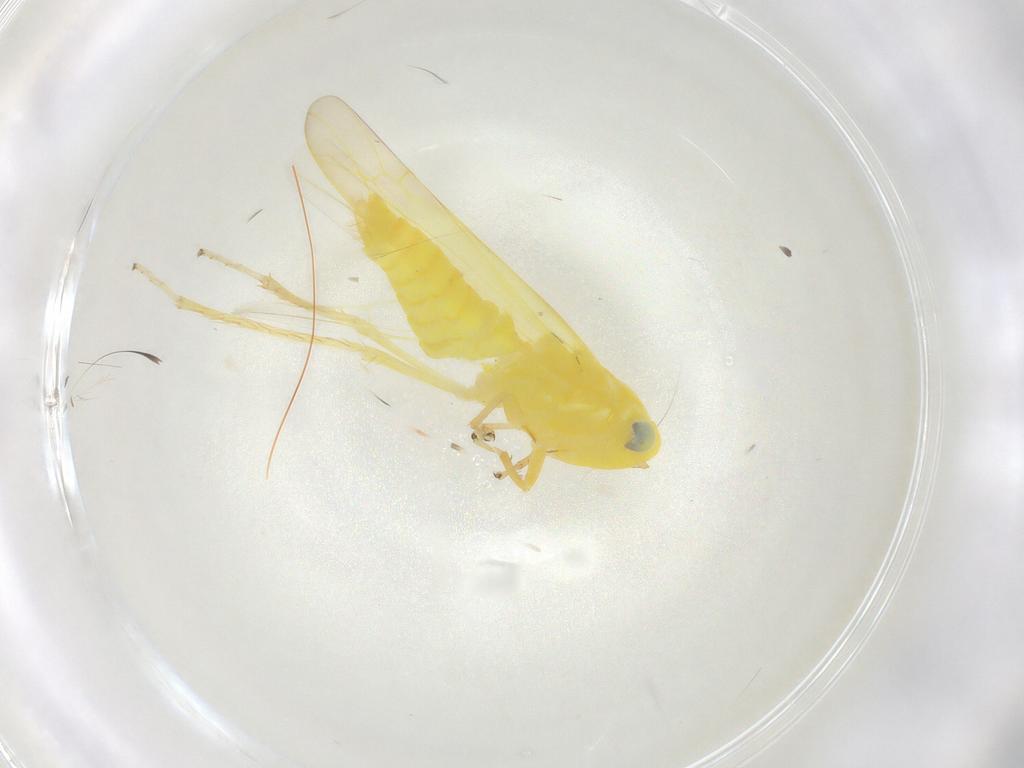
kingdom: Animalia
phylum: Arthropoda
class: Insecta
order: Hemiptera
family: Cicadellidae
